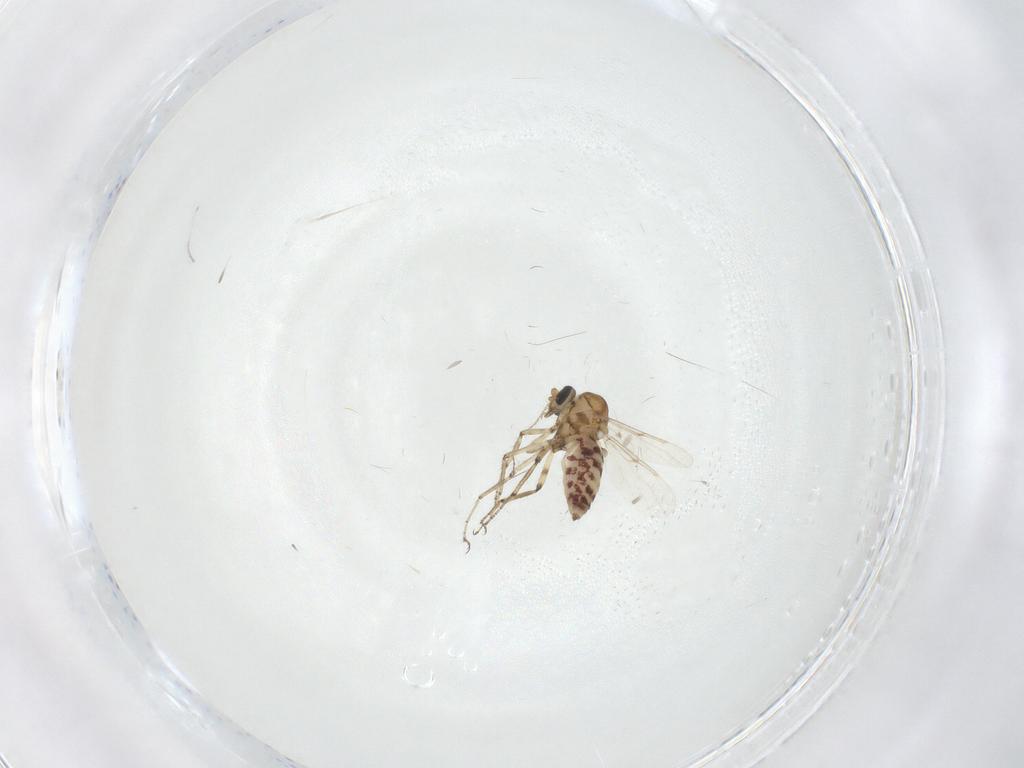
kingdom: Animalia
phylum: Arthropoda
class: Insecta
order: Diptera
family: Ceratopogonidae
